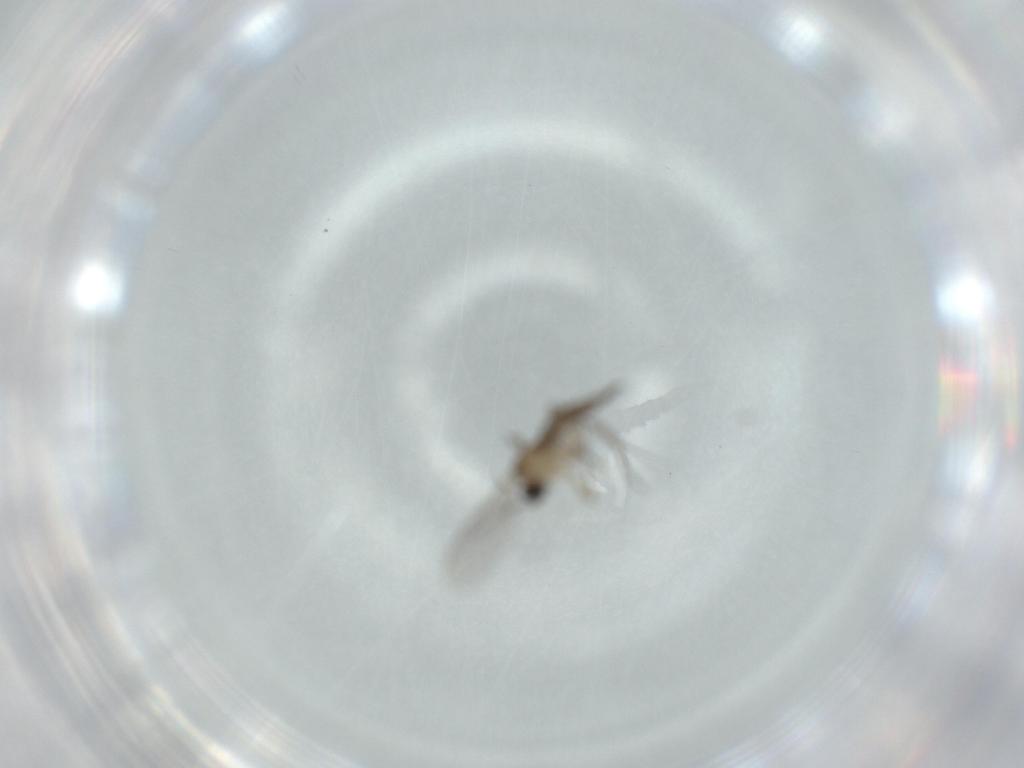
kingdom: Animalia
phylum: Arthropoda
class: Insecta
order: Diptera
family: Sciaridae
